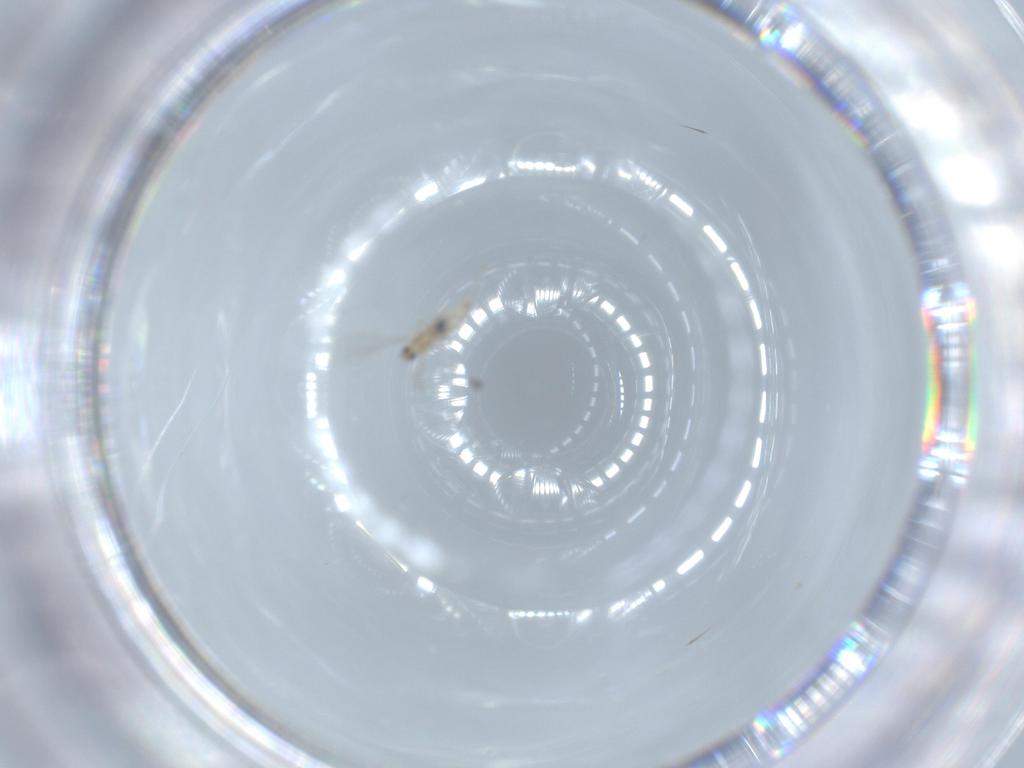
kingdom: Animalia
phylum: Arthropoda
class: Insecta
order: Diptera
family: Cecidomyiidae
